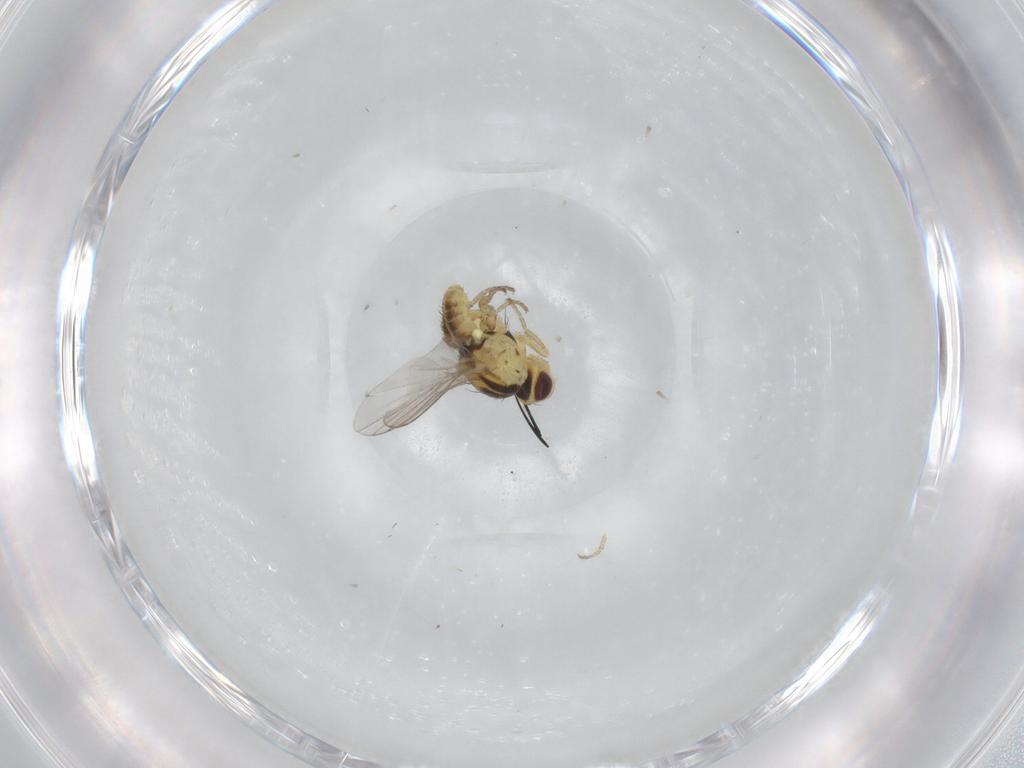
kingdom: Animalia
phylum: Arthropoda
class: Insecta
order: Diptera
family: Agromyzidae
